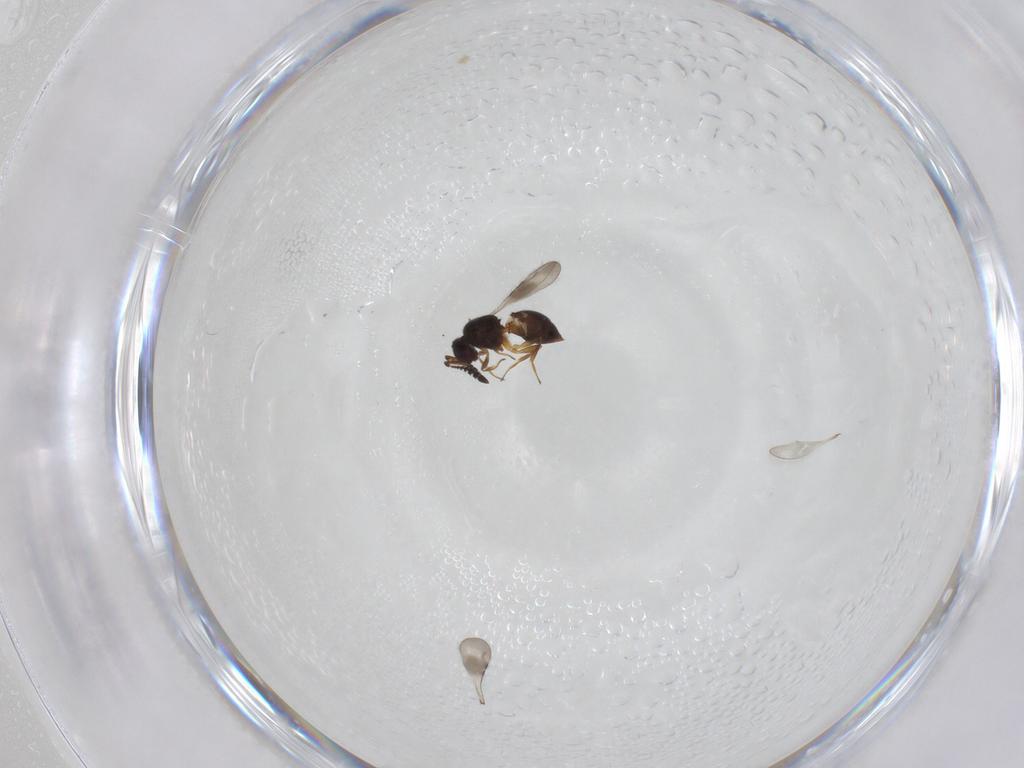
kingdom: Animalia
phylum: Arthropoda
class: Insecta
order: Hymenoptera
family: Ceraphronidae
